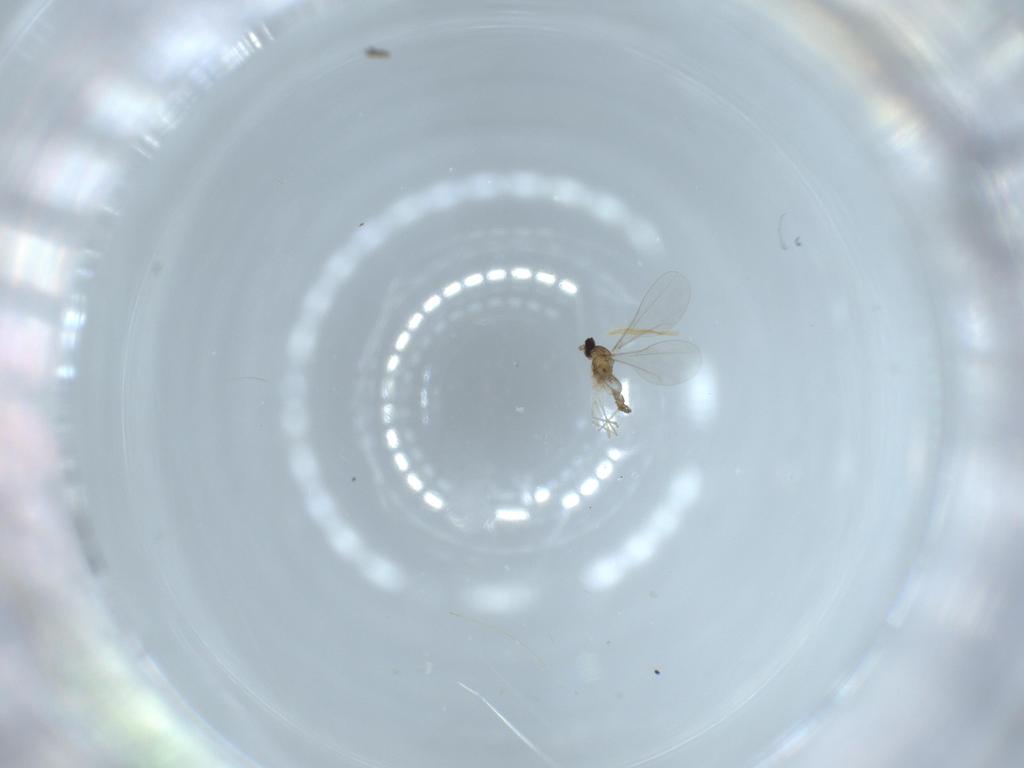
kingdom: Animalia
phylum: Arthropoda
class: Insecta
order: Diptera
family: Cecidomyiidae
